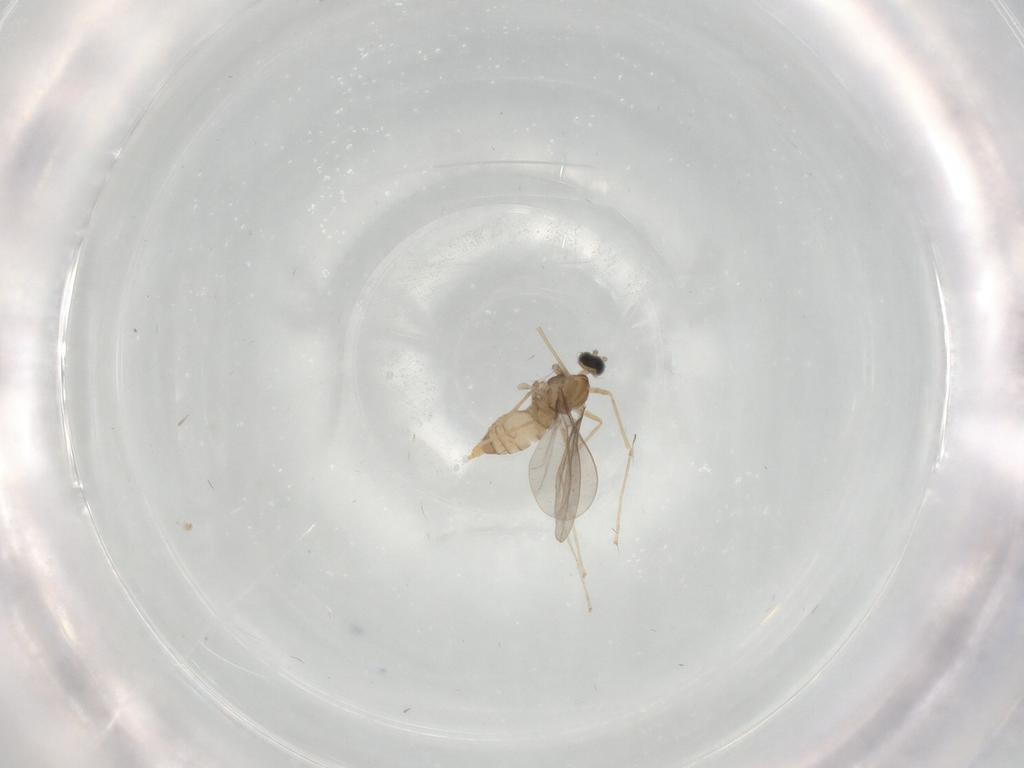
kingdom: Animalia
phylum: Arthropoda
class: Insecta
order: Diptera
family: Cecidomyiidae
